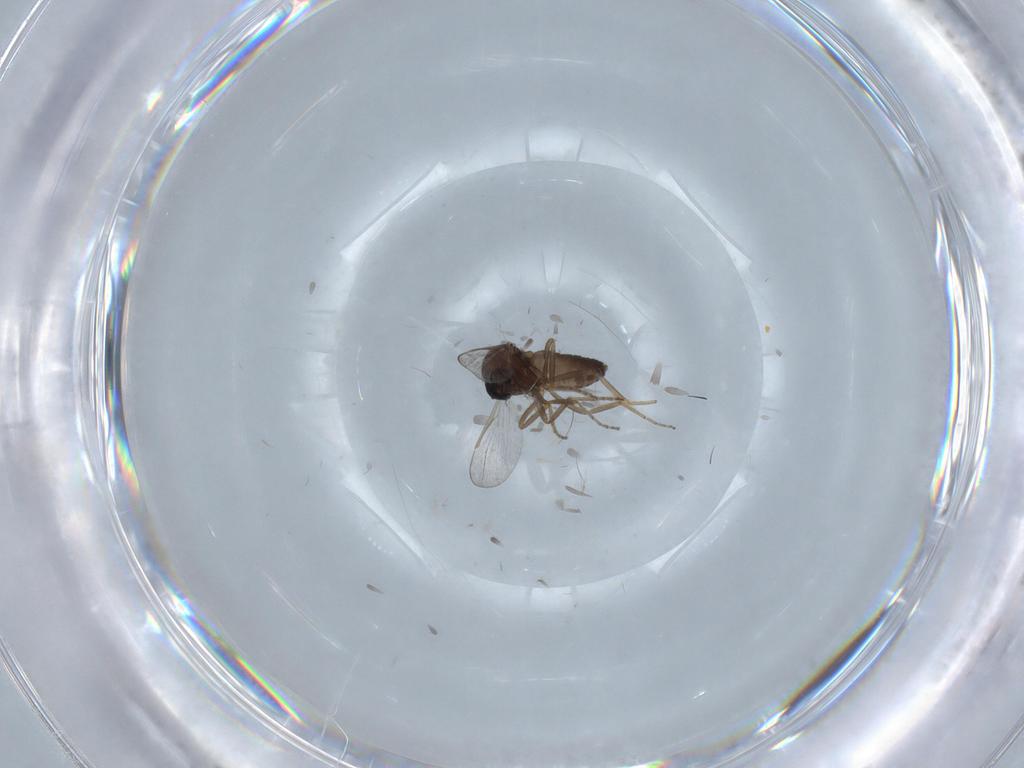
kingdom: Animalia
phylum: Arthropoda
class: Insecta
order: Diptera
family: Ceratopogonidae
